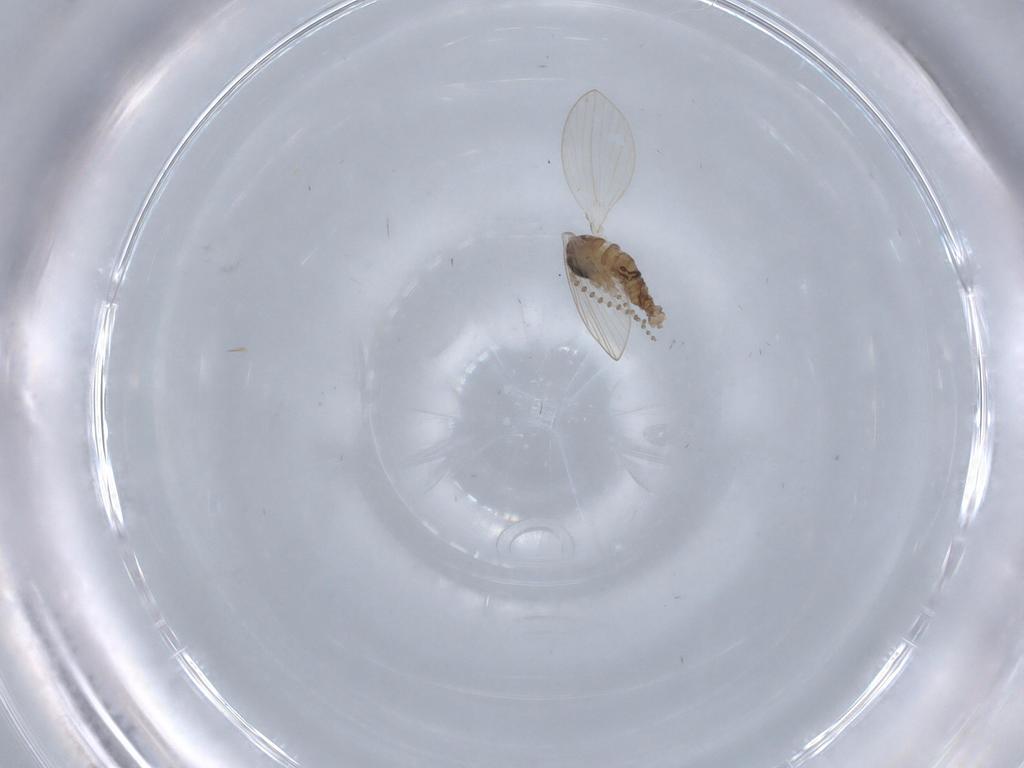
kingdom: Animalia
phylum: Arthropoda
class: Insecta
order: Diptera
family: Psychodidae
